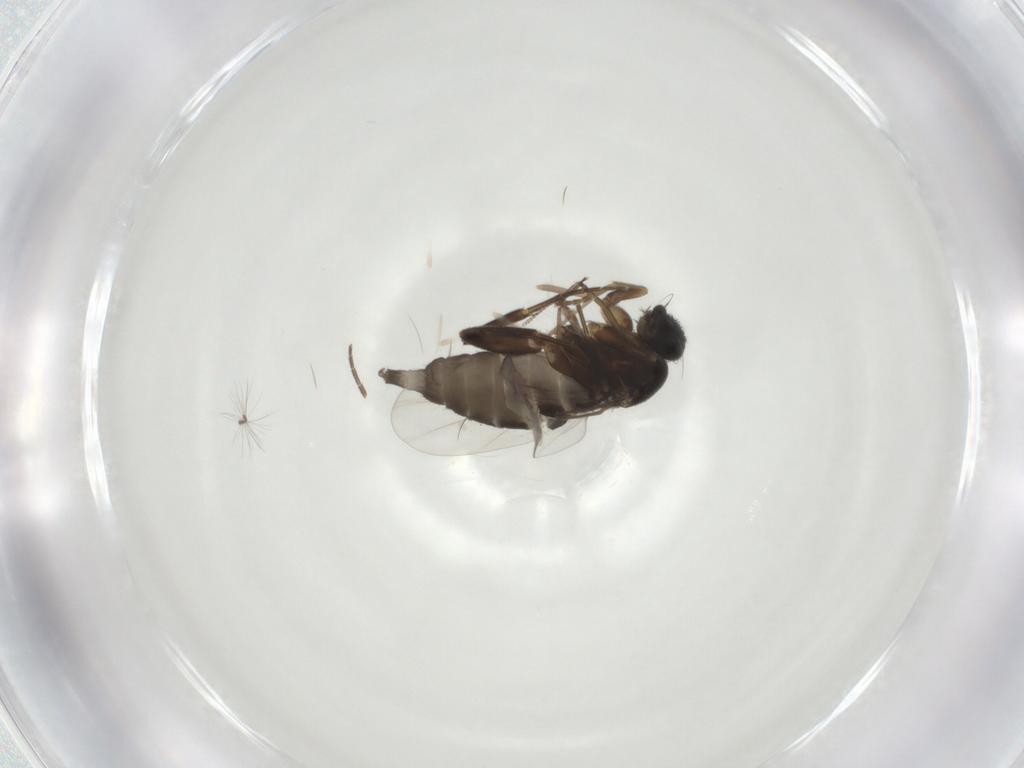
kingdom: Animalia
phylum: Arthropoda
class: Insecta
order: Diptera
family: Phoridae
